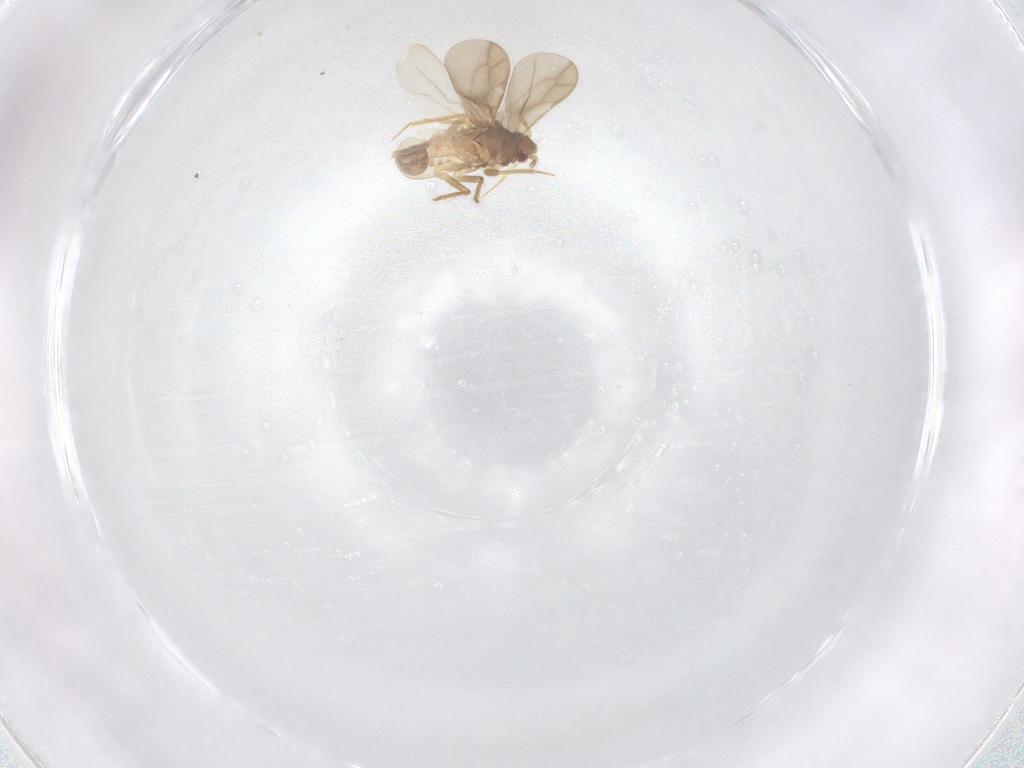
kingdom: Animalia
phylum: Arthropoda
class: Insecta
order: Hemiptera
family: Ceratocombidae
